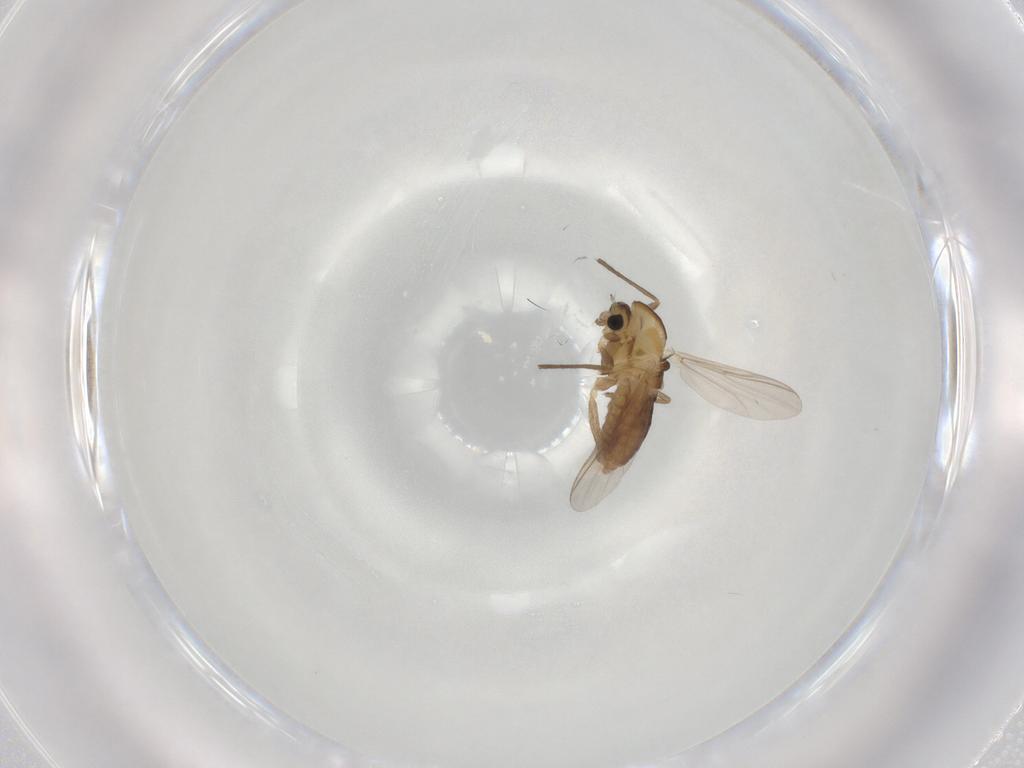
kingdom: Animalia
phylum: Arthropoda
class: Insecta
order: Diptera
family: Chironomidae
